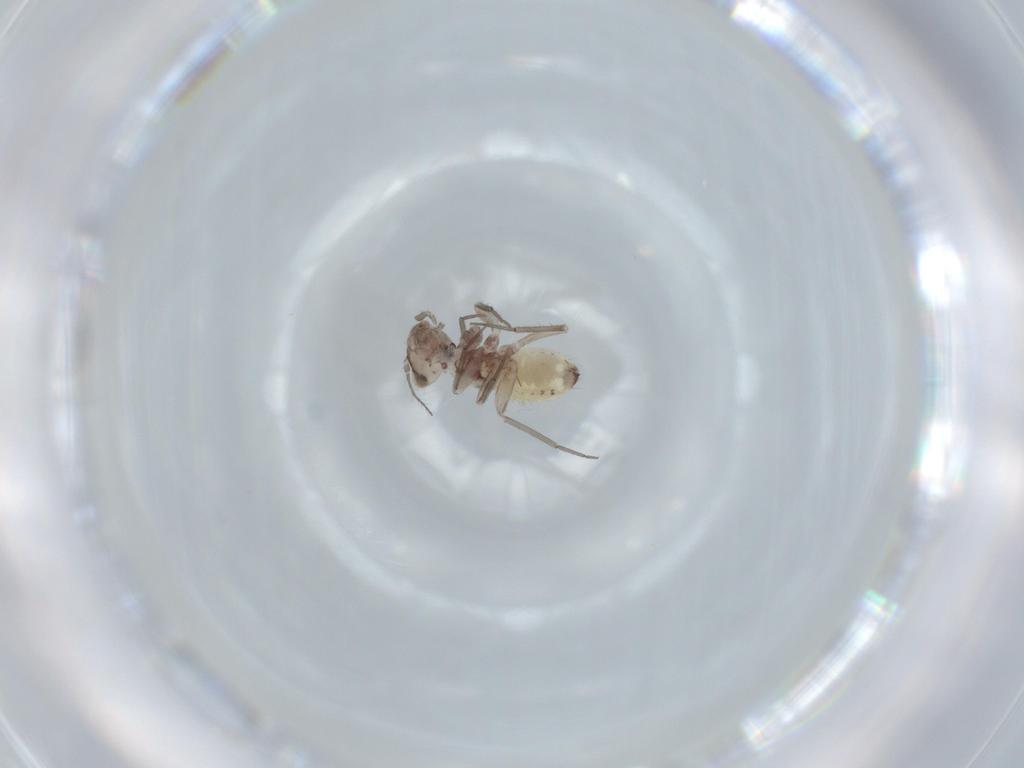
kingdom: Animalia
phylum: Arthropoda
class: Insecta
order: Psocodea
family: Lepidopsocidae
